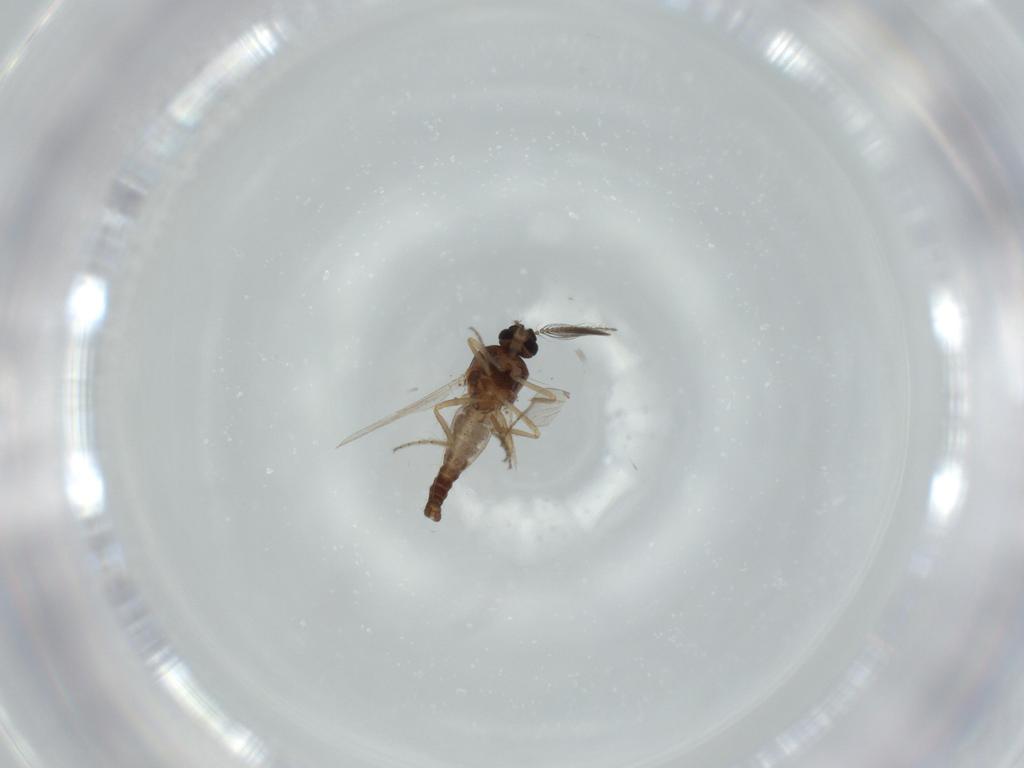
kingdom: Animalia
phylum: Arthropoda
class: Insecta
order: Diptera
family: Ceratopogonidae
